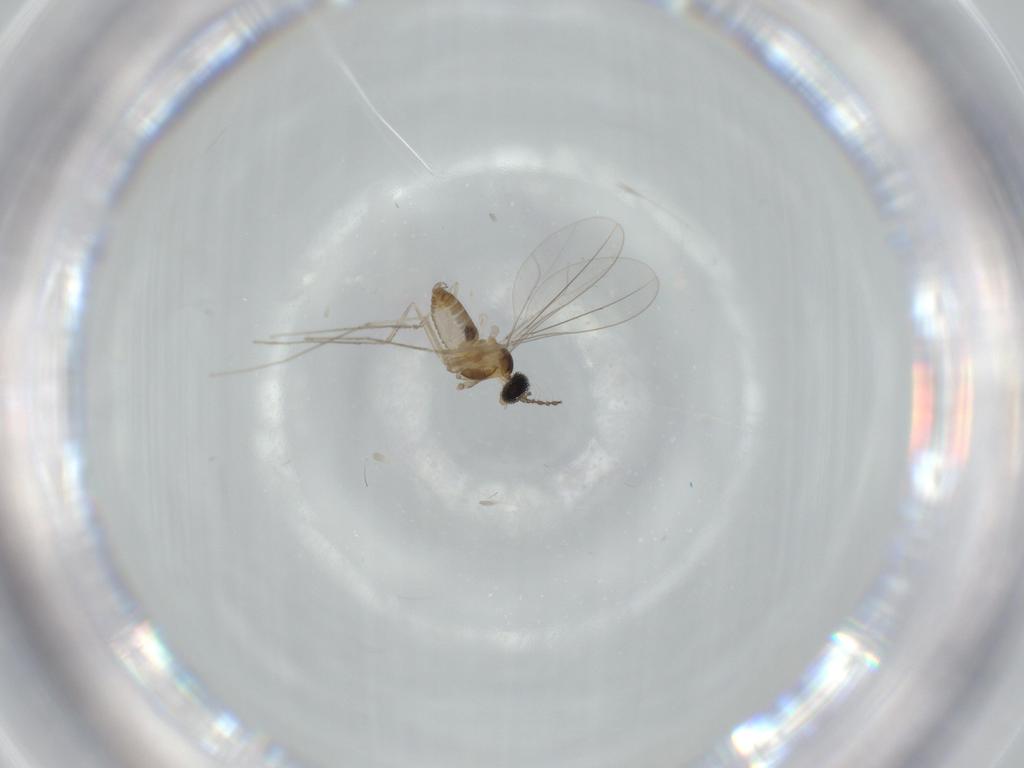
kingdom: Animalia
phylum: Arthropoda
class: Insecta
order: Diptera
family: Cecidomyiidae
